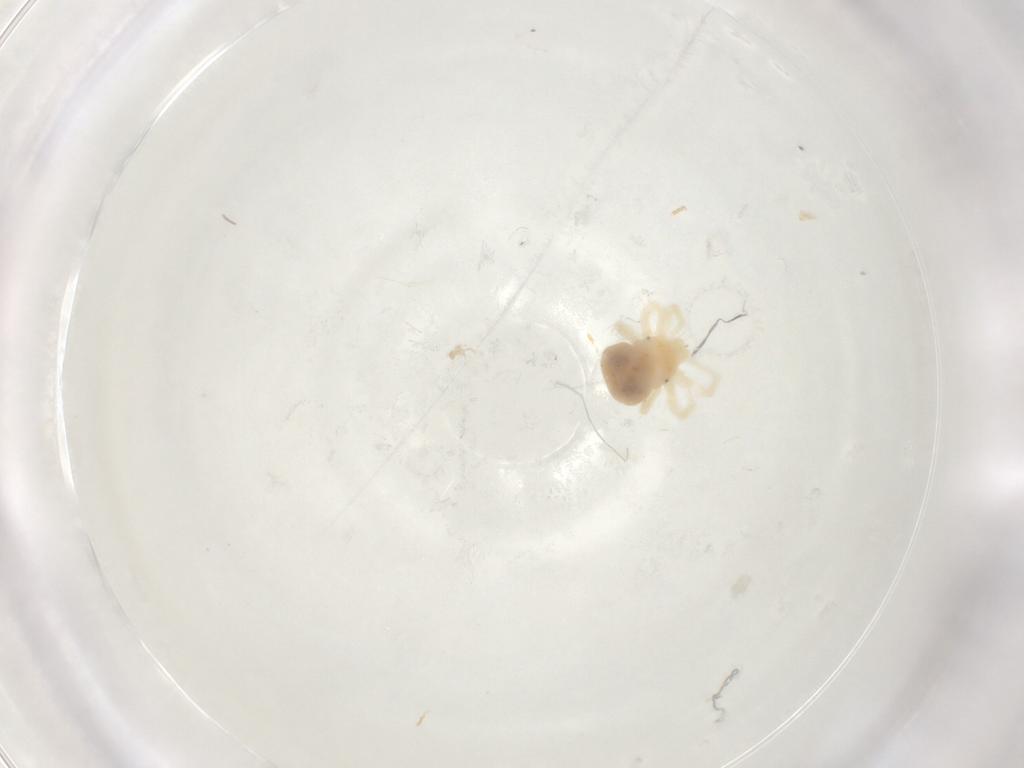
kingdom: Animalia
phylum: Arthropoda
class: Arachnida
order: Trombidiformes
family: Anystidae
